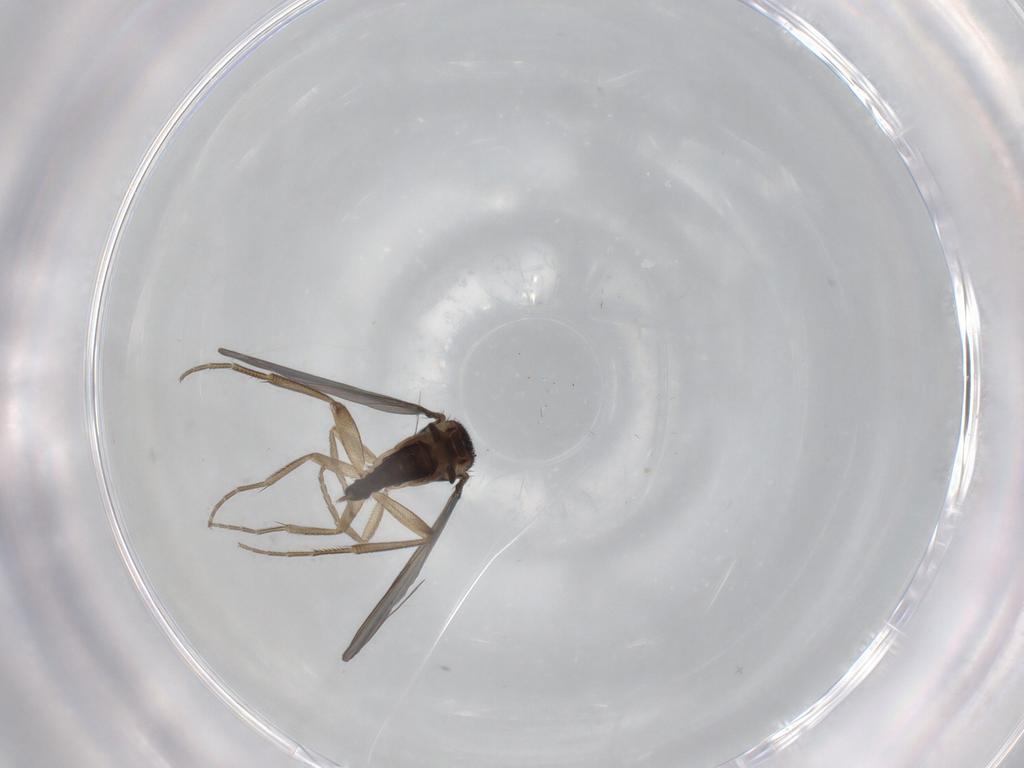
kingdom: Animalia
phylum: Arthropoda
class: Insecta
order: Diptera
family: Phoridae
